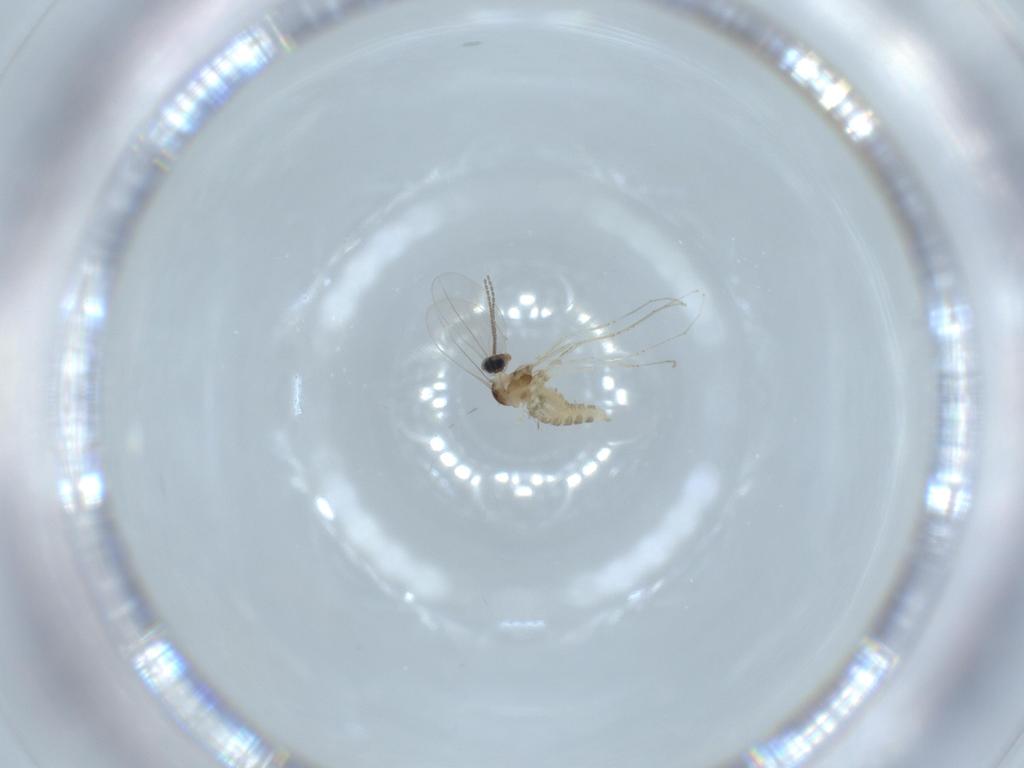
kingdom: Animalia
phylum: Arthropoda
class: Insecta
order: Diptera
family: Cecidomyiidae
